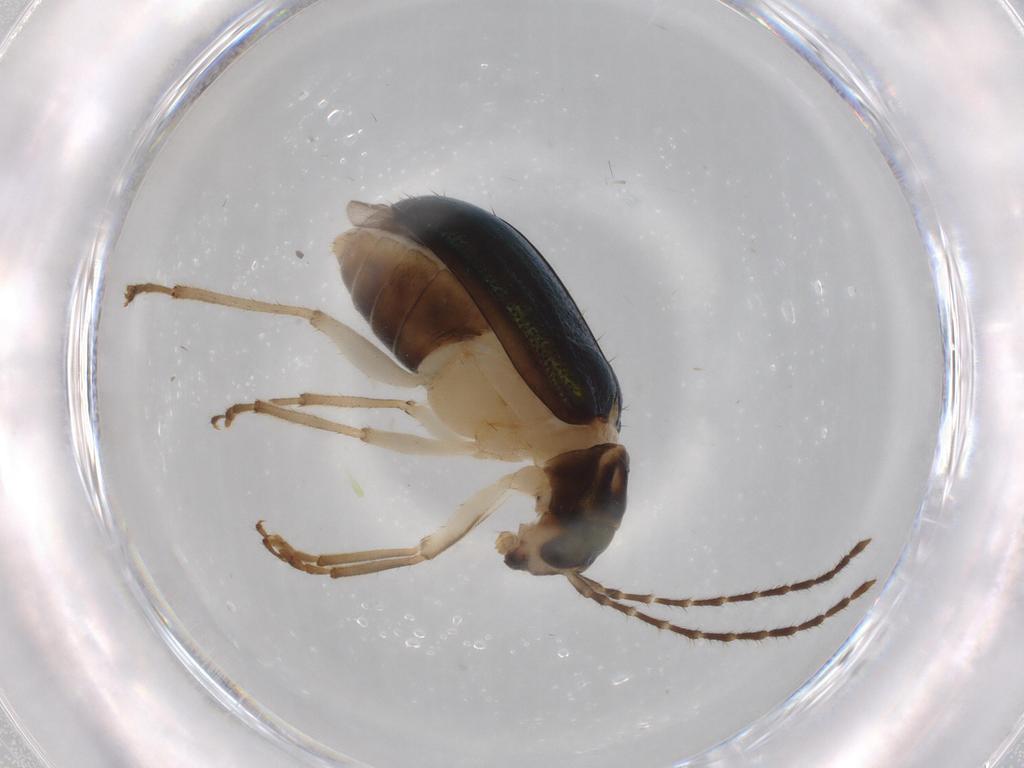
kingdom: Animalia
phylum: Arthropoda
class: Insecta
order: Coleoptera
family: Chrysomelidae
